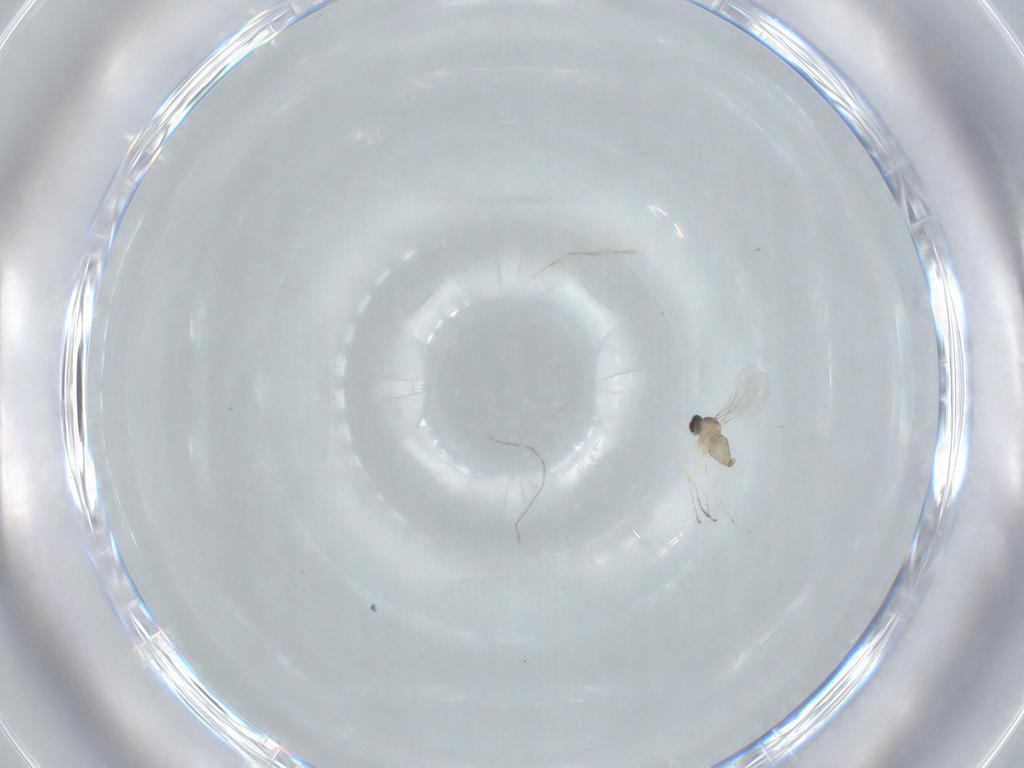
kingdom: Animalia
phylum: Arthropoda
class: Insecta
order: Diptera
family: Cecidomyiidae
